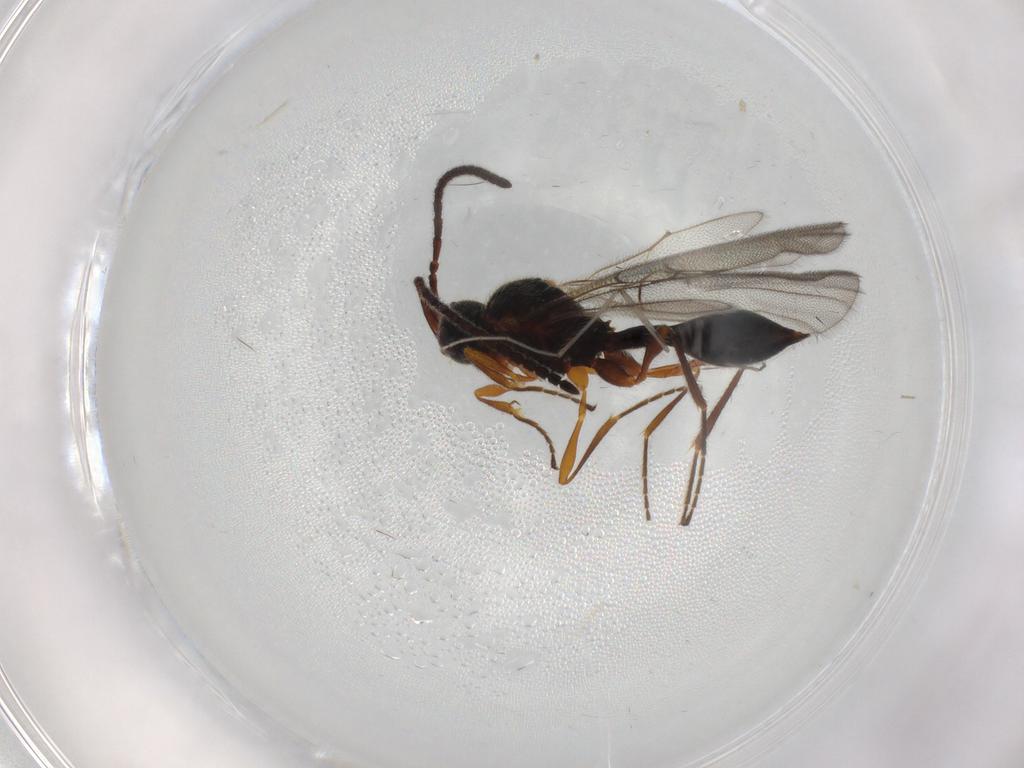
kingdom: Animalia
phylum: Arthropoda
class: Insecta
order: Hymenoptera
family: Diapriidae
